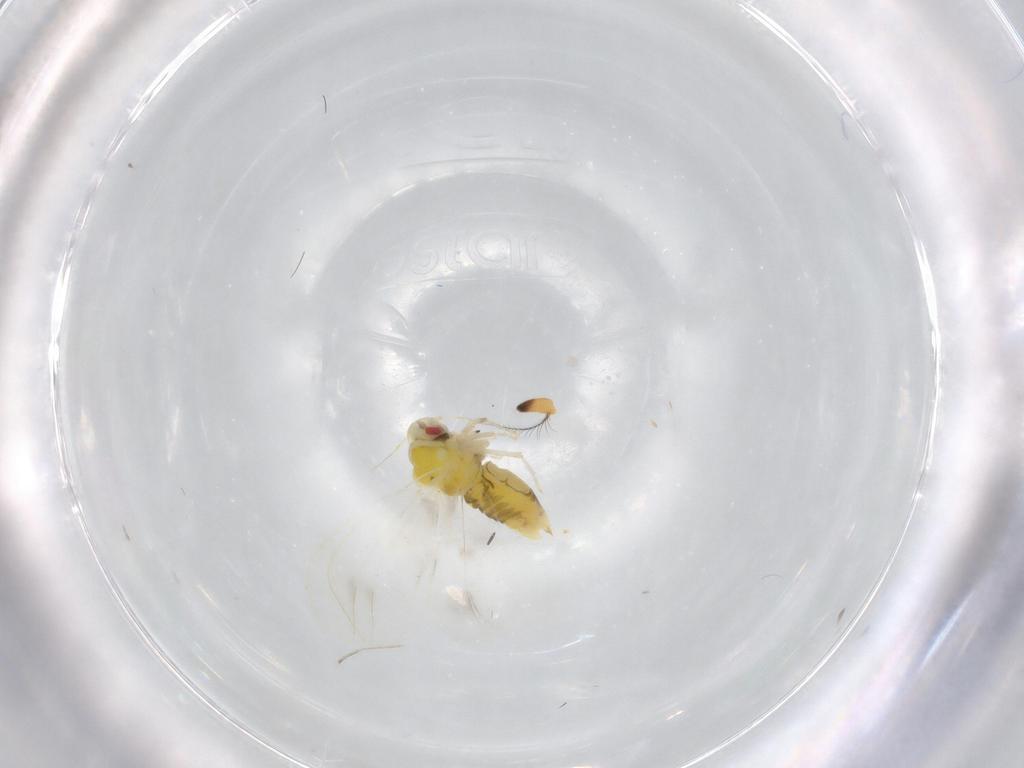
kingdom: Animalia
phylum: Arthropoda
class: Insecta
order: Hemiptera
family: Aleyrodidae
